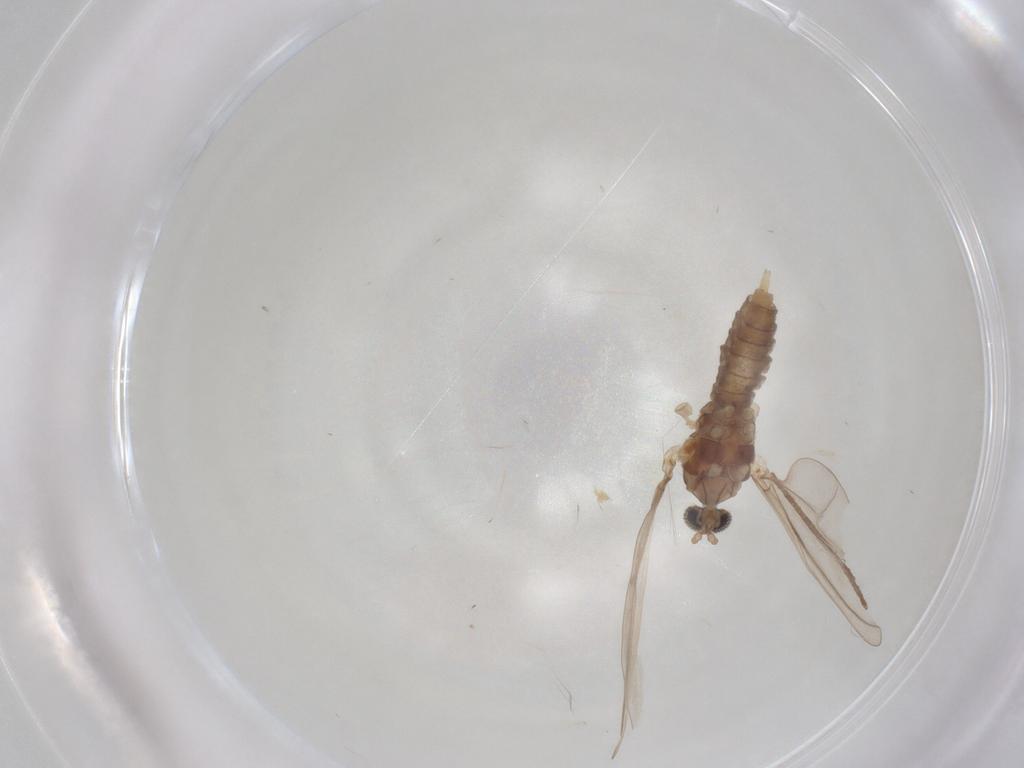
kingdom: Animalia
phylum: Arthropoda
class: Insecta
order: Diptera
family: Cecidomyiidae
